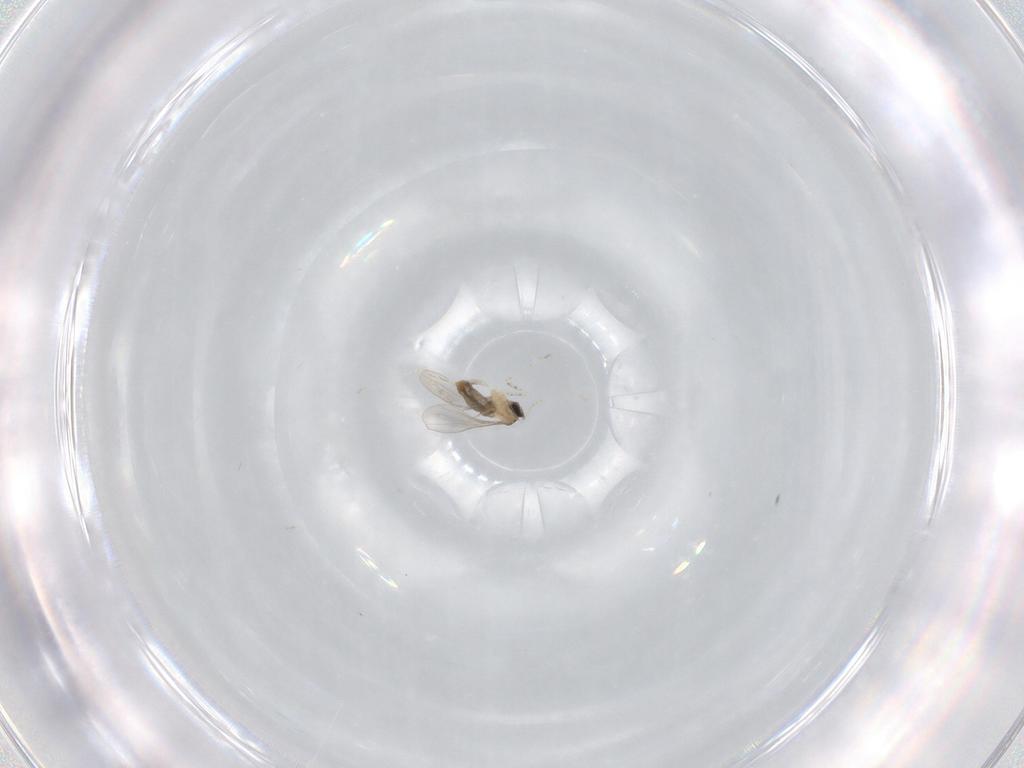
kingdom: Animalia
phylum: Arthropoda
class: Insecta
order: Diptera
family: Cecidomyiidae
